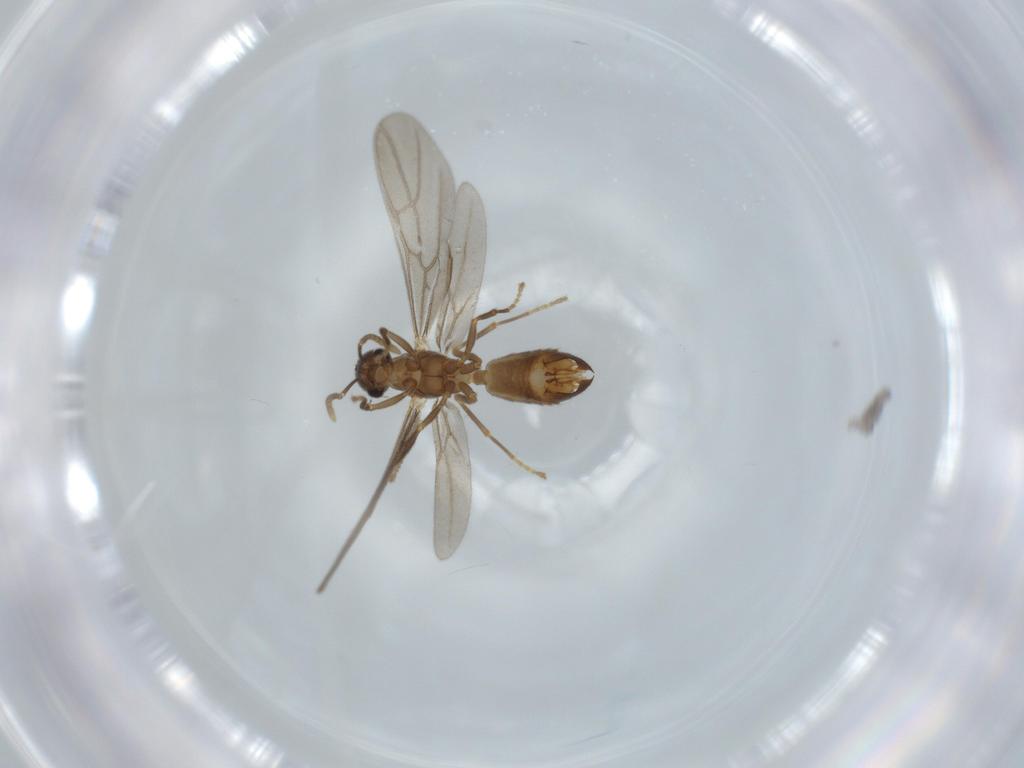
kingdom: Animalia
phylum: Arthropoda
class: Insecta
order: Hymenoptera
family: Formicidae
